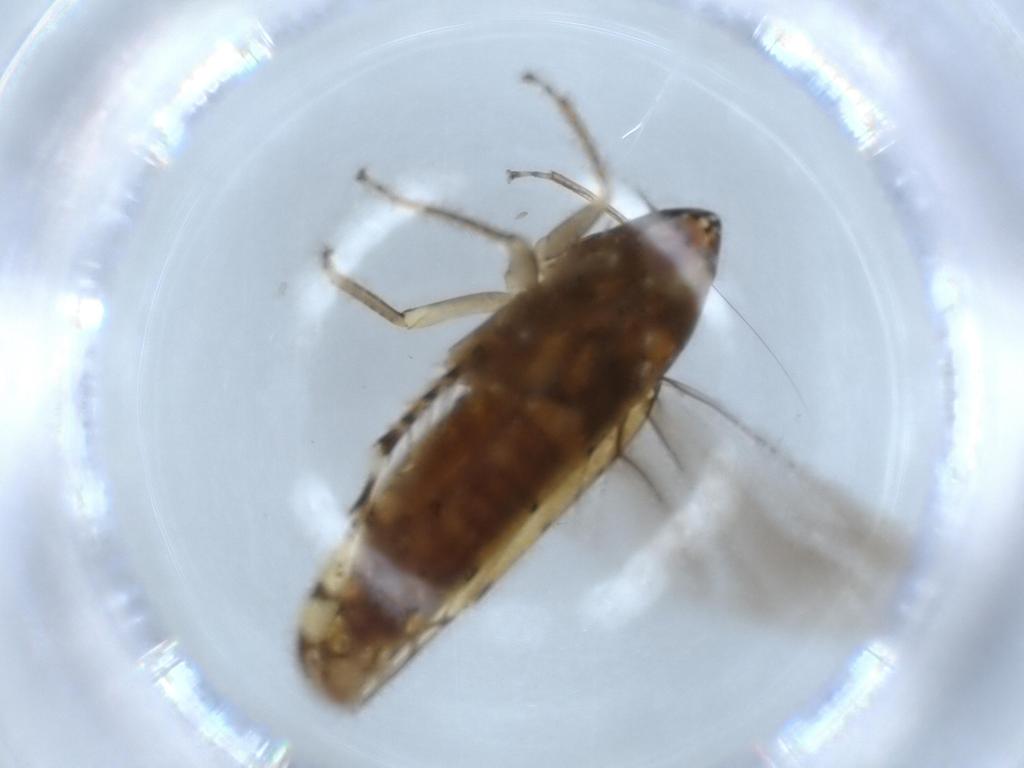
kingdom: Animalia
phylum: Arthropoda
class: Insecta
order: Hemiptera
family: Cicadellidae
